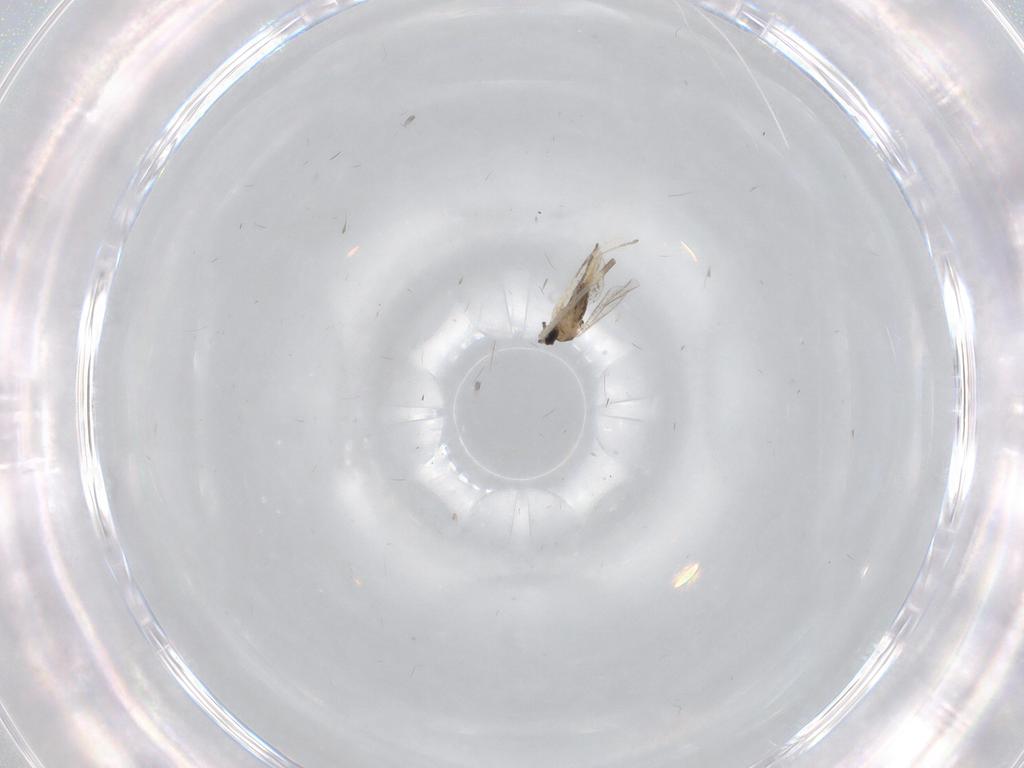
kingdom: Animalia
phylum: Arthropoda
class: Insecta
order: Diptera
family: Cecidomyiidae
